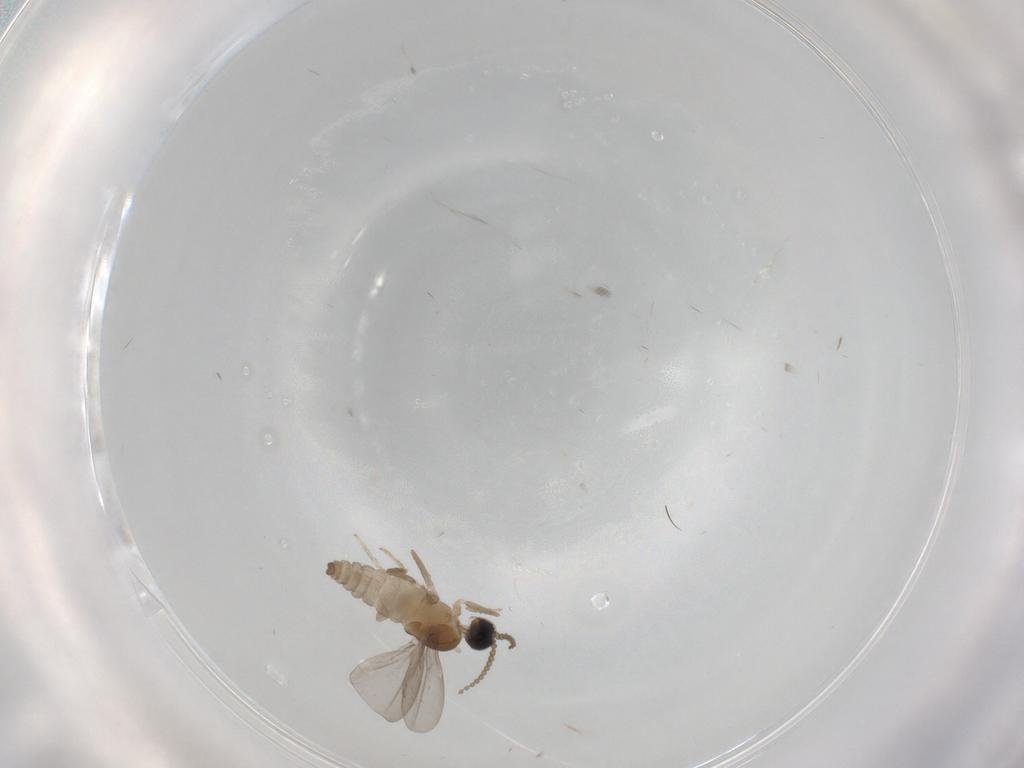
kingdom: Animalia
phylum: Arthropoda
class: Insecta
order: Diptera
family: Cecidomyiidae
